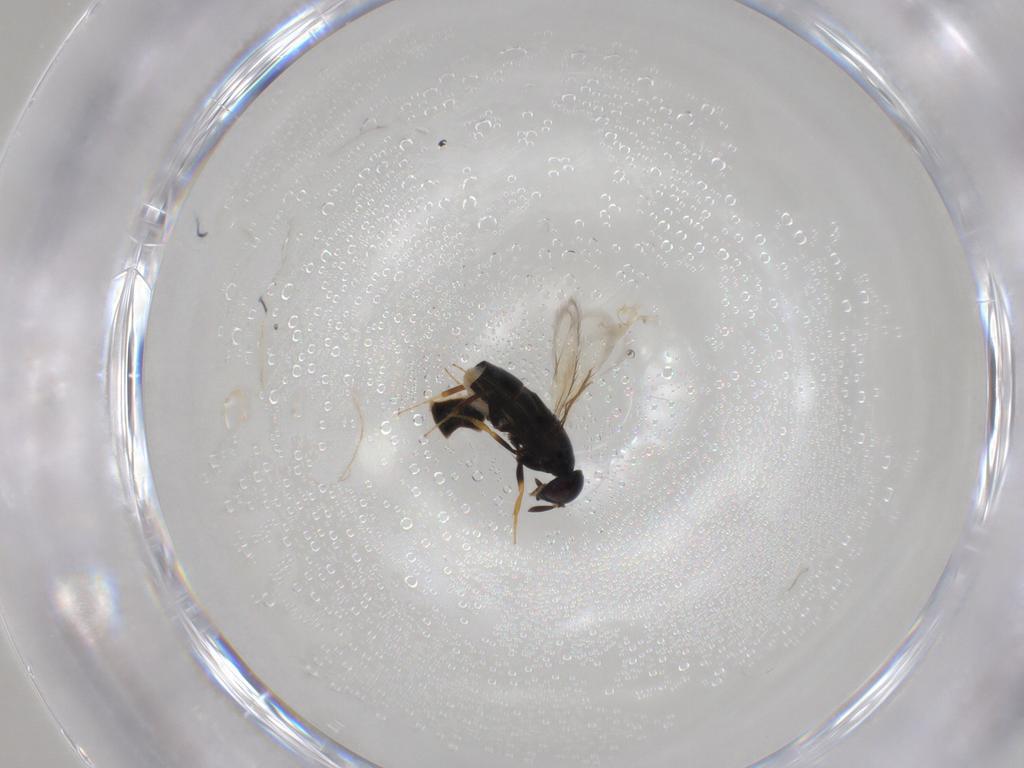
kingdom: Animalia
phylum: Arthropoda
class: Insecta
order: Hymenoptera
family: Signiphoridae
